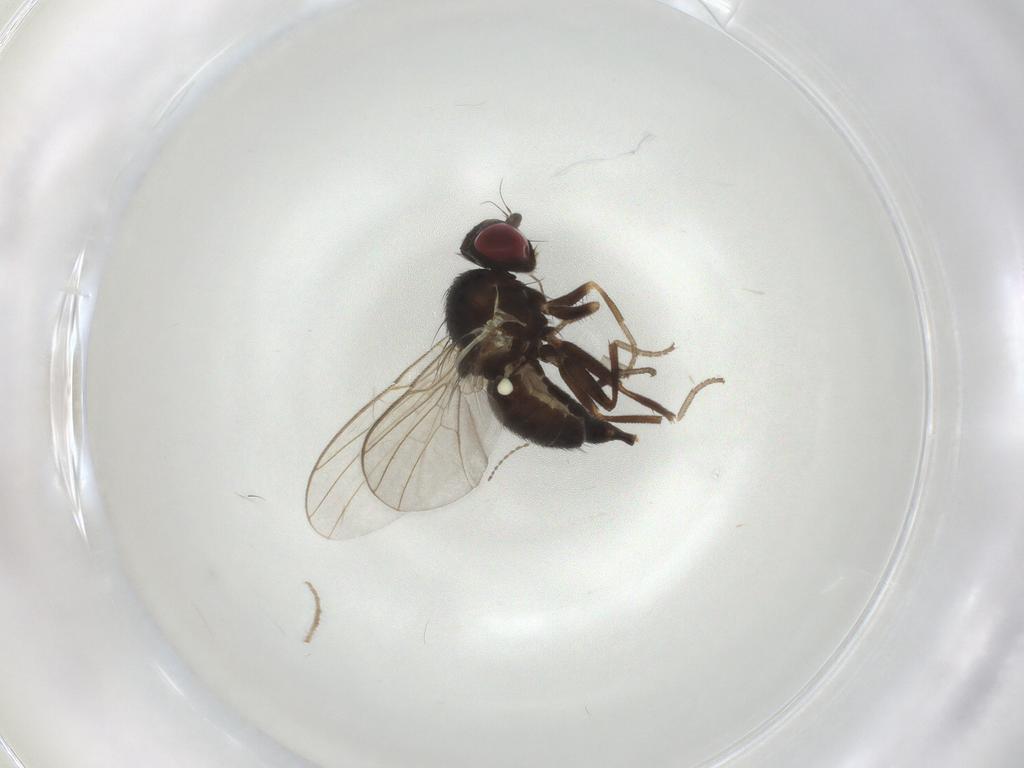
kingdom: Animalia
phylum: Arthropoda
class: Insecta
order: Diptera
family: Agromyzidae
